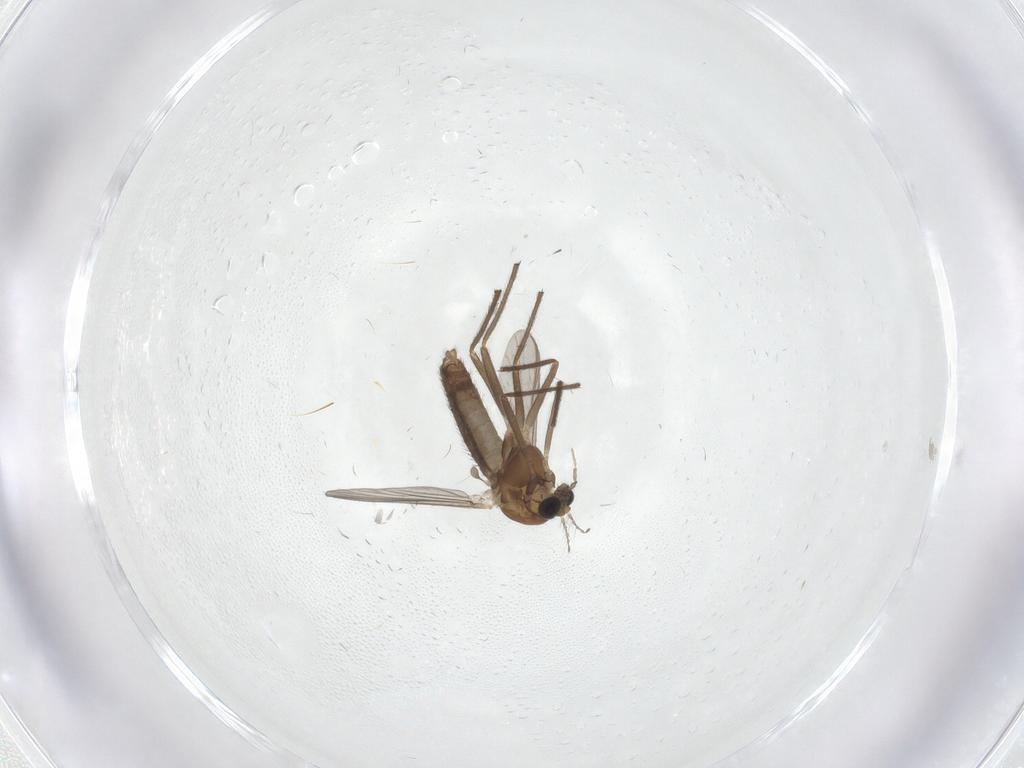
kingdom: Animalia
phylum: Arthropoda
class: Insecta
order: Diptera
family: Chironomidae
